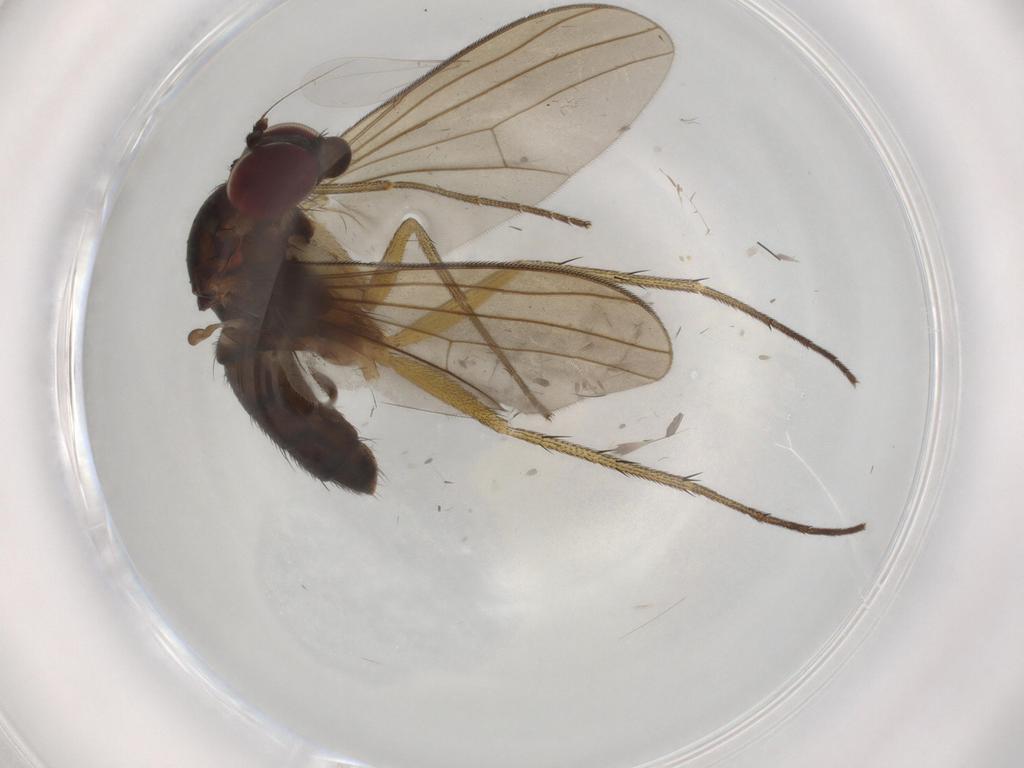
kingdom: Animalia
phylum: Arthropoda
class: Insecta
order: Diptera
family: Dolichopodidae
